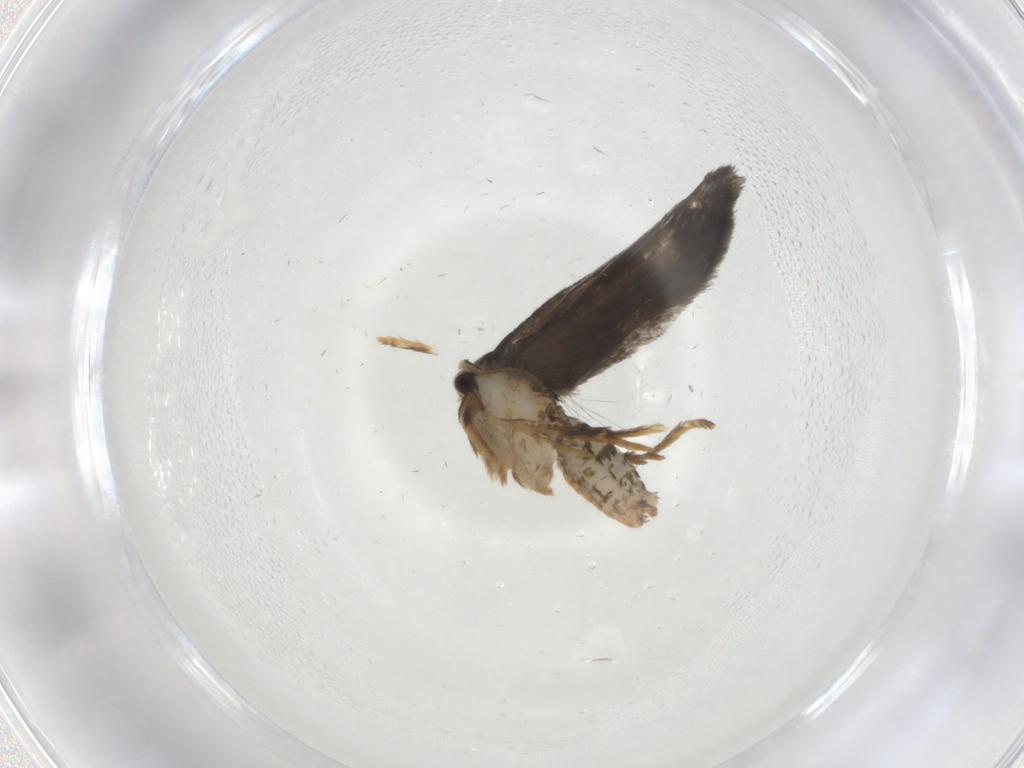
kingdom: Animalia
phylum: Arthropoda
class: Insecta
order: Lepidoptera
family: Psychidae
